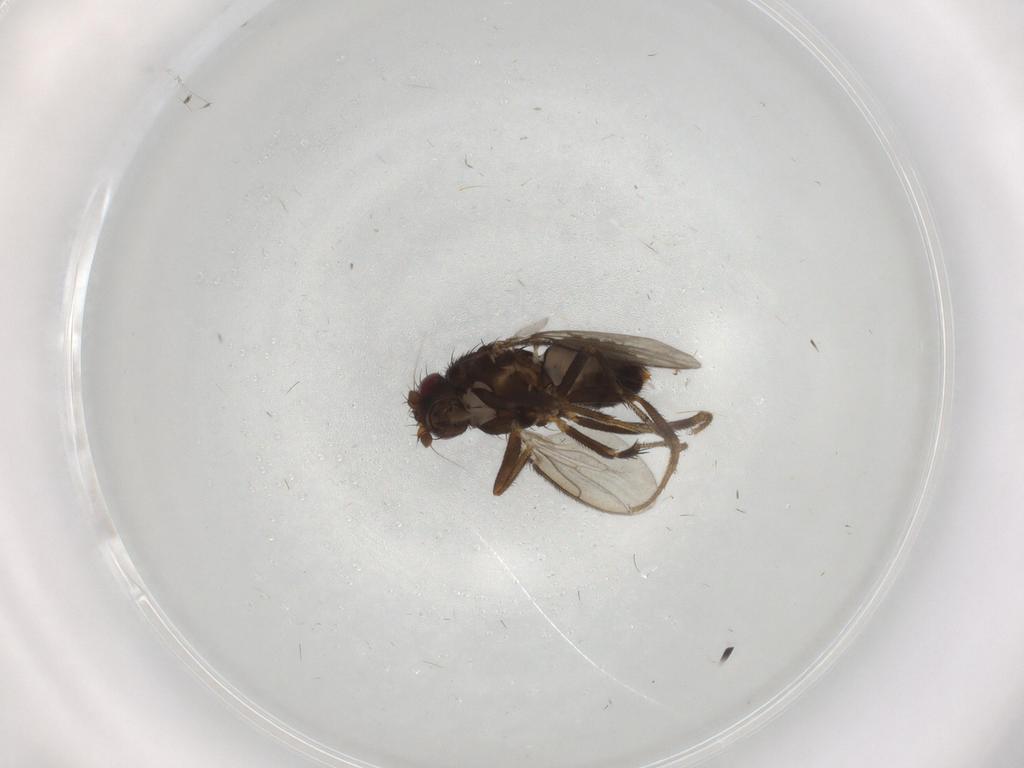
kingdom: Animalia
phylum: Arthropoda
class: Insecta
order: Diptera
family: Sphaeroceridae
